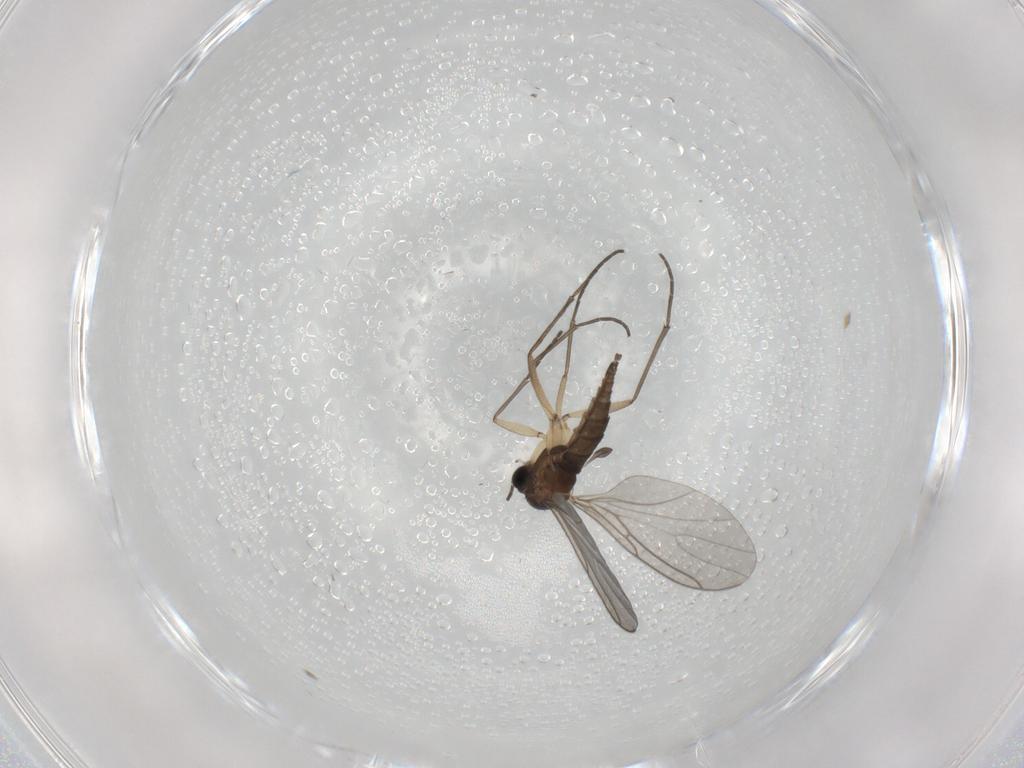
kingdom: Animalia
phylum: Arthropoda
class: Insecta
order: Diptera
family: Sciaridae
